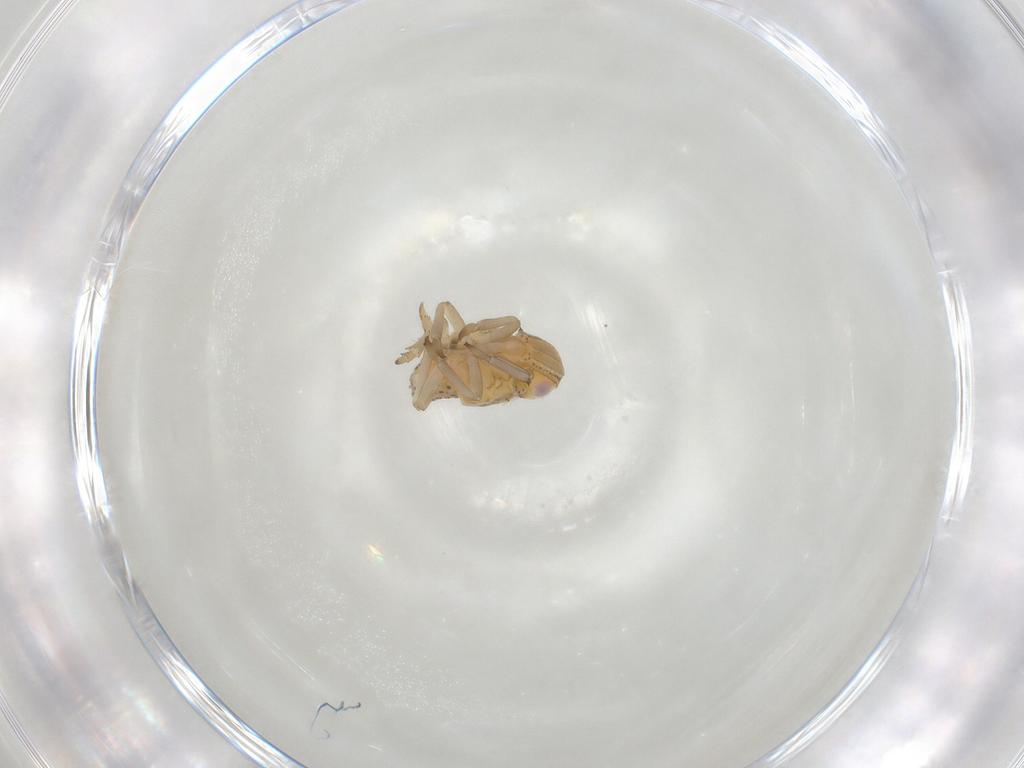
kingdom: Animalia
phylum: Arthropoda
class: Insecta
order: Hemiptera
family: Tropiduchidae
